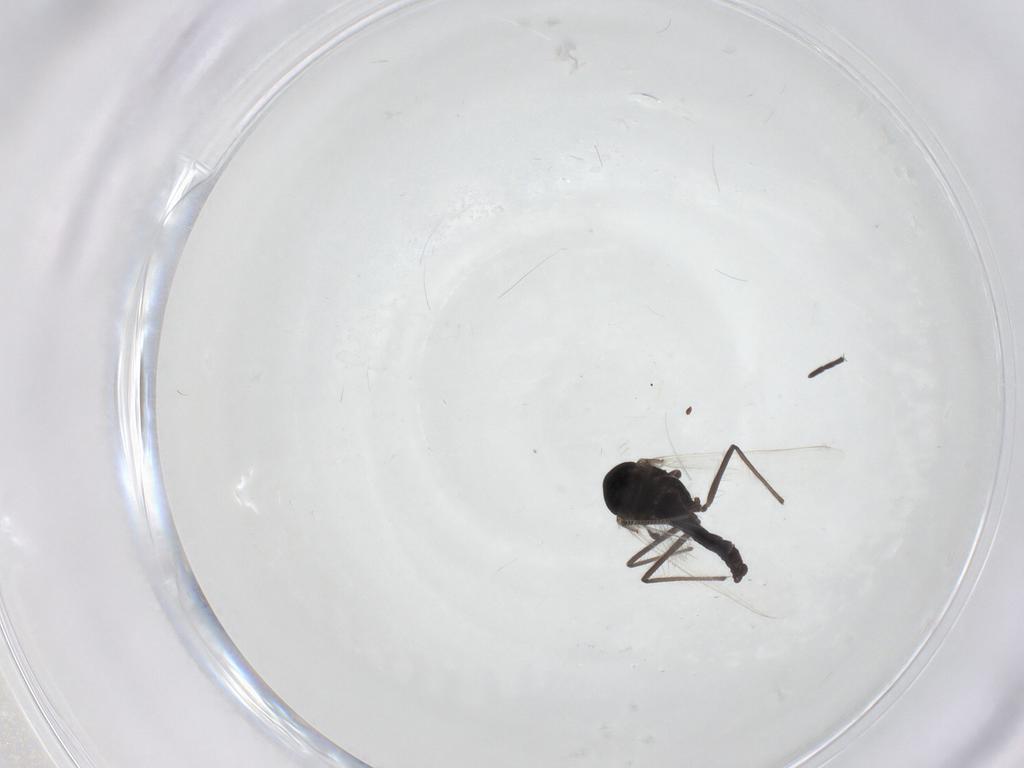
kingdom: Animalia
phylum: Arthropoda
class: Insecta
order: Diptera
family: Chironomidae
